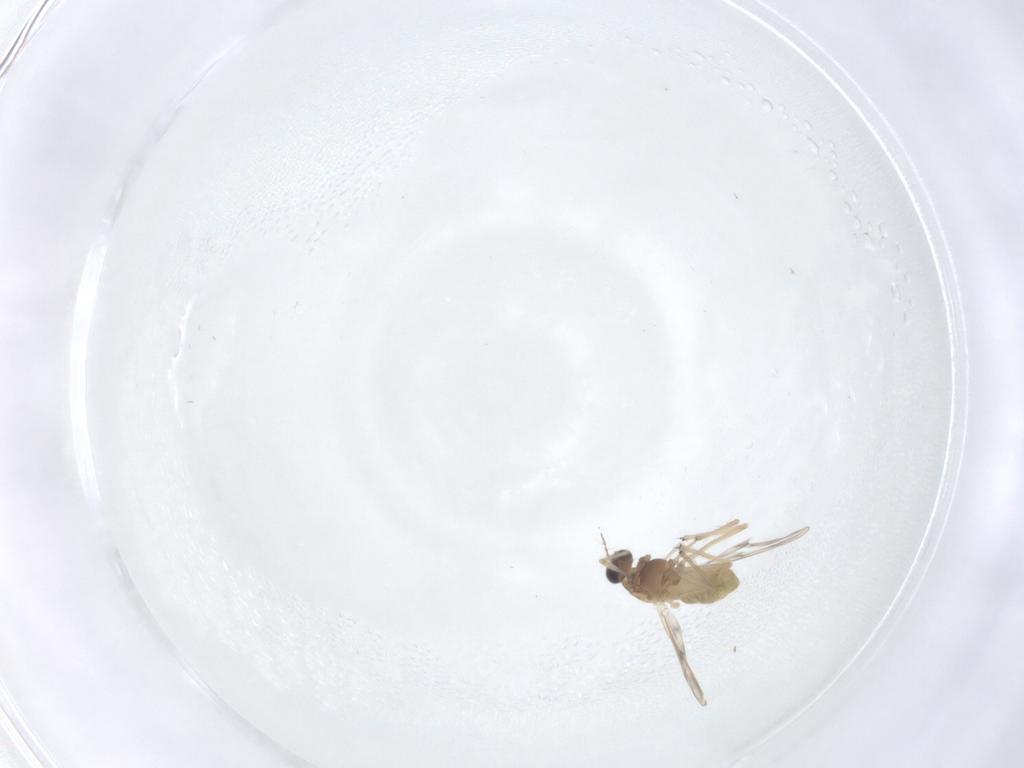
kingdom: Animalia
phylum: Arthropoda
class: Insecta
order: Diptera
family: Chironomidae
